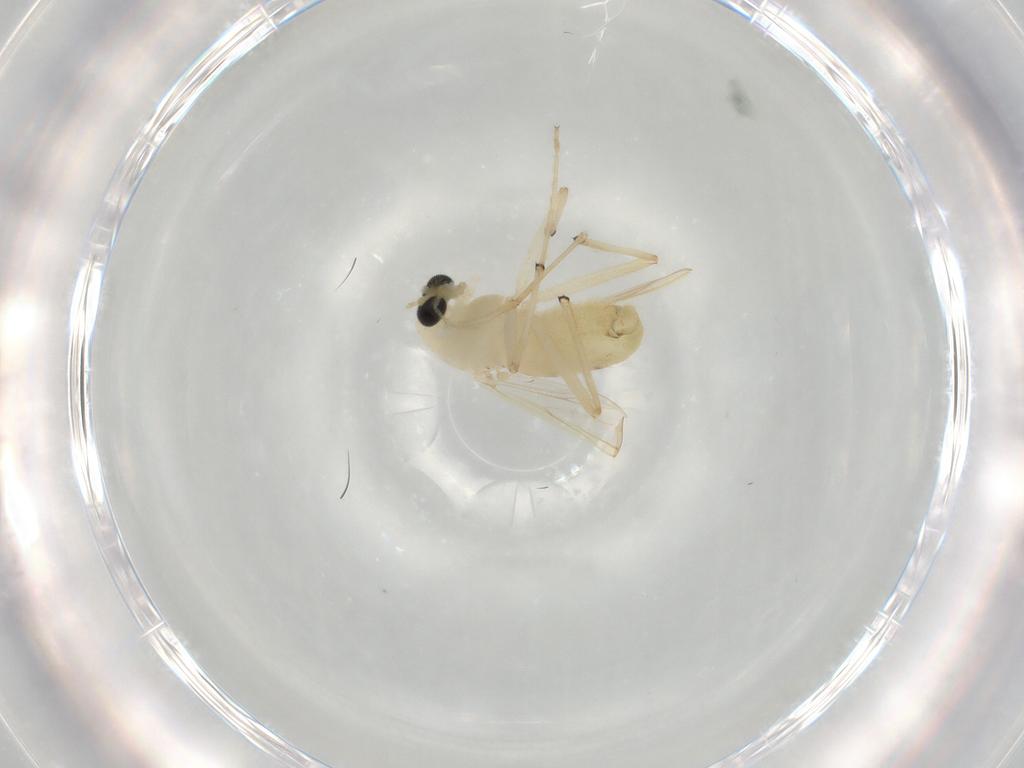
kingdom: Animalia
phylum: Arthropoda
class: Insecta
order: Diptera
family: Chironomidae
